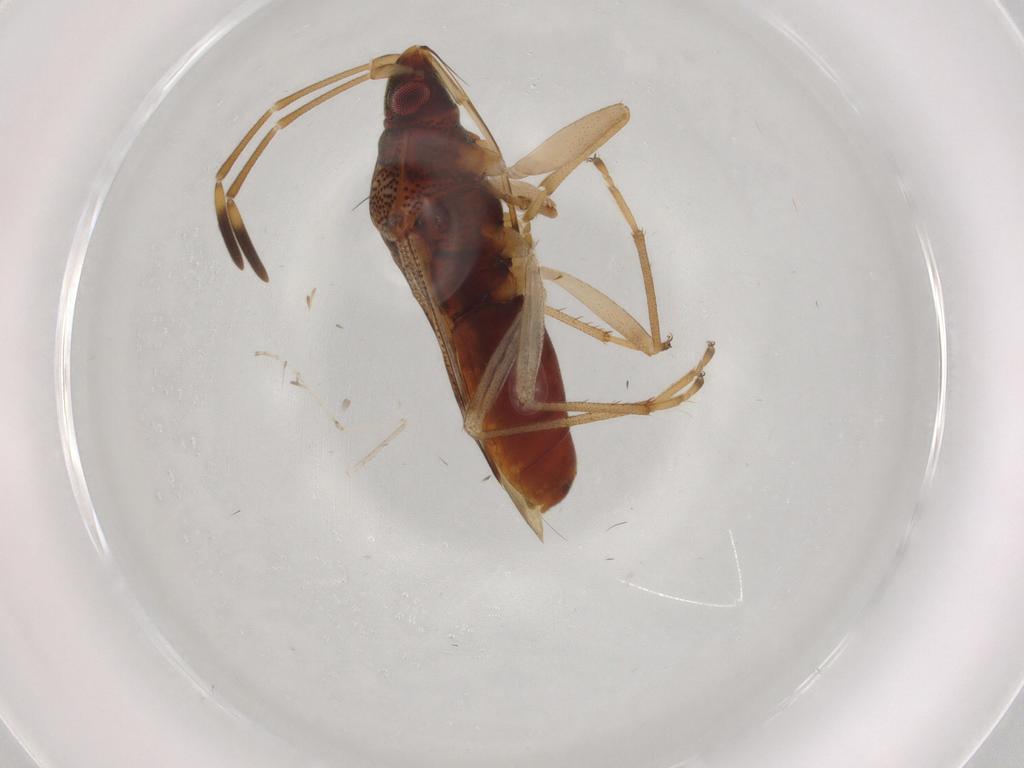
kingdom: Animalia
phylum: Arthropoda
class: Insecta
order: Hemiptera
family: Rhyparochromidae
